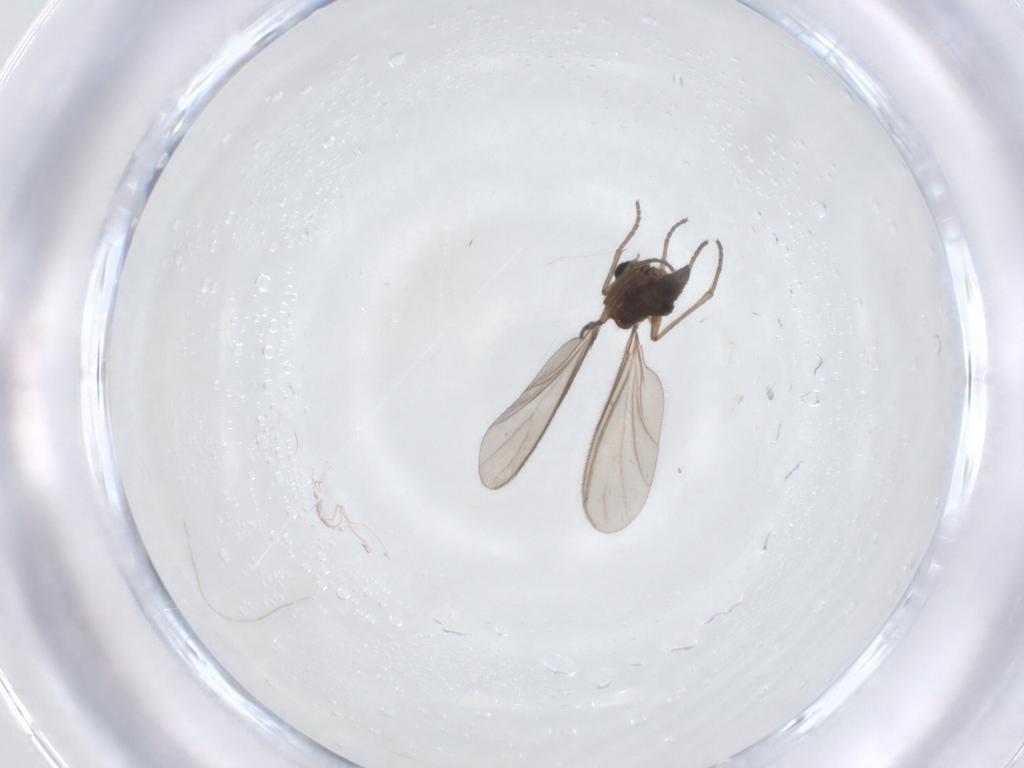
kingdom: Animalia
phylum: Arthropoda
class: Insecta
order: Diptera
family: Sciaridae
